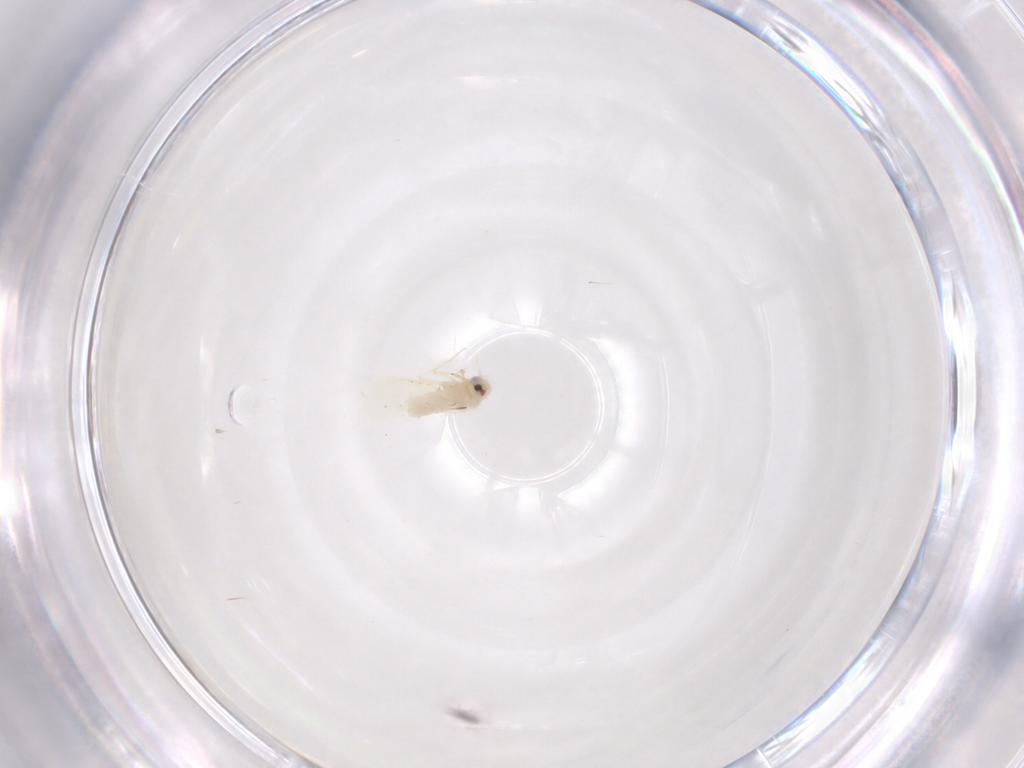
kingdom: Animalia
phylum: Arthropoda
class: Insecta
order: Hemiptera
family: Aleyrodidae
